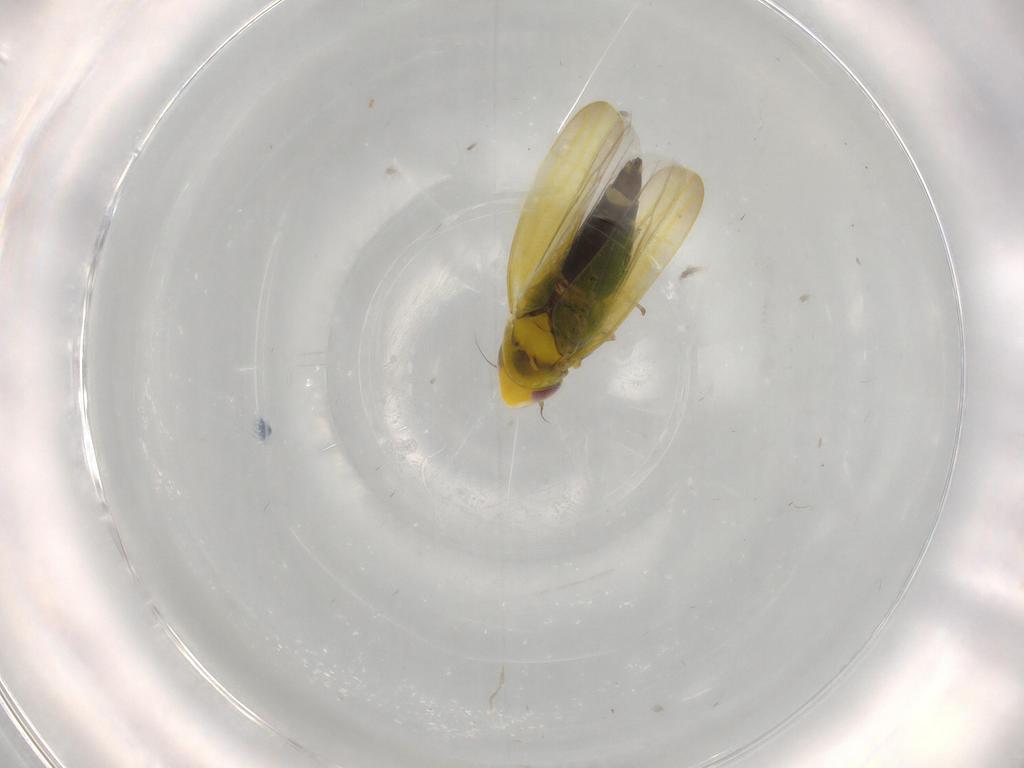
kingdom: Animalia
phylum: Arthropoda
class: Insecta
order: Hemiptera
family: Cicadellidae
